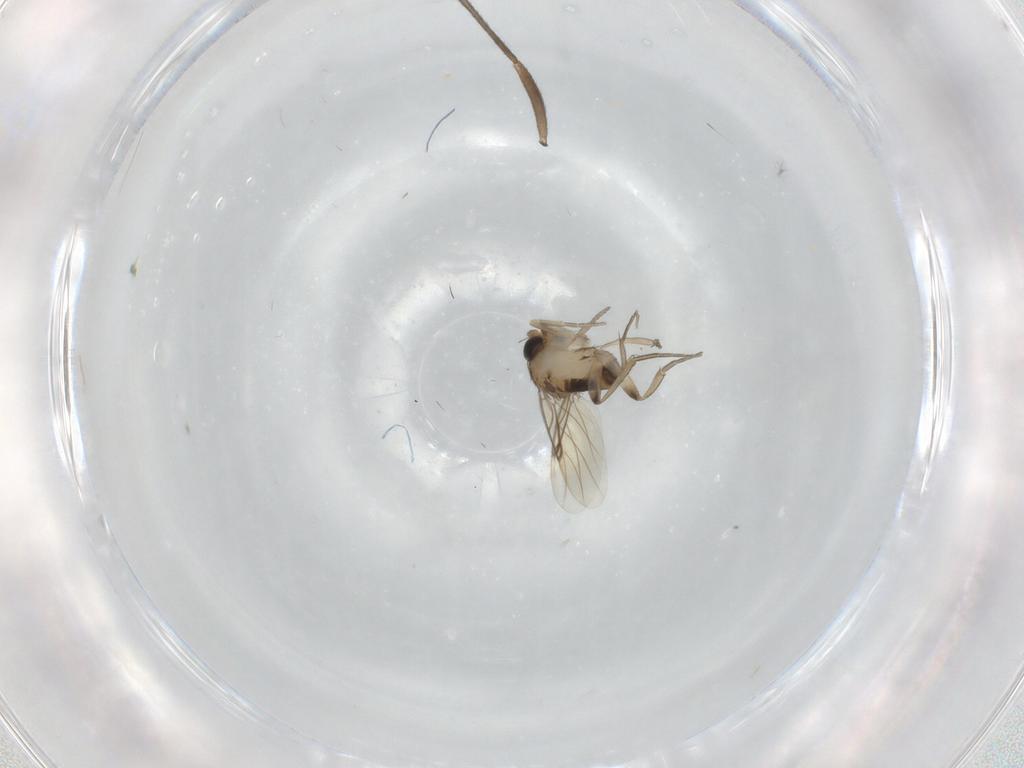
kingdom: Animalia
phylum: Arthropoda
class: Insecta
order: Diptera
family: Phoridae
